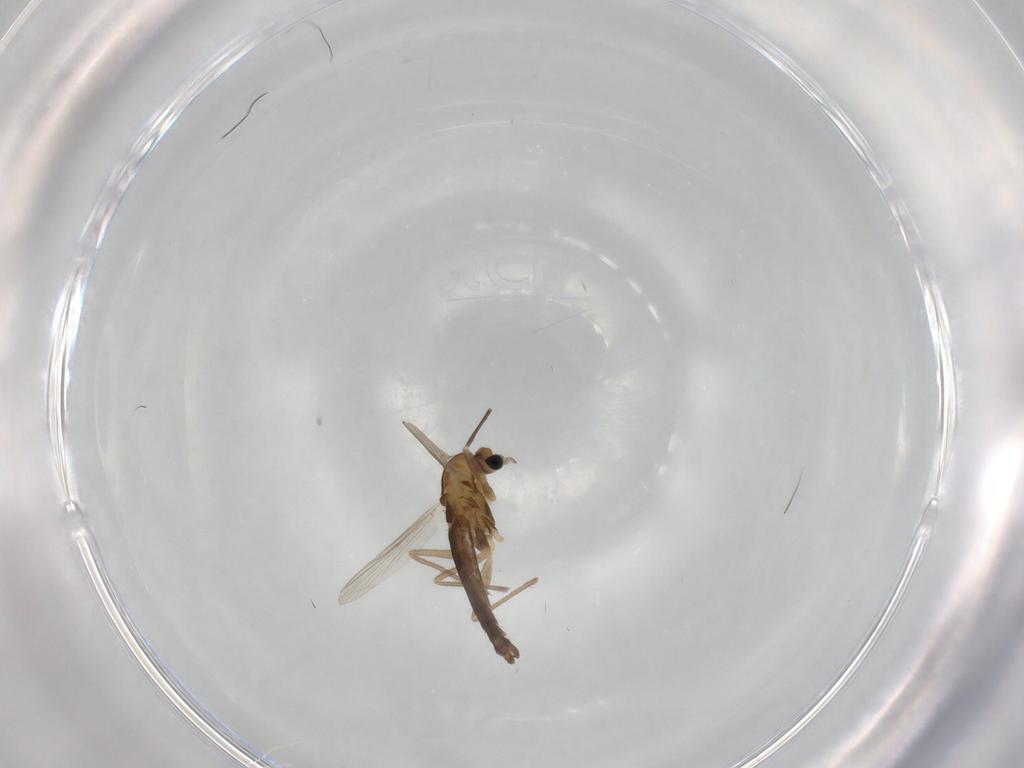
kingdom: Animalia
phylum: Arthropoda
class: Insecta
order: Diptera
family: Chironomidae
